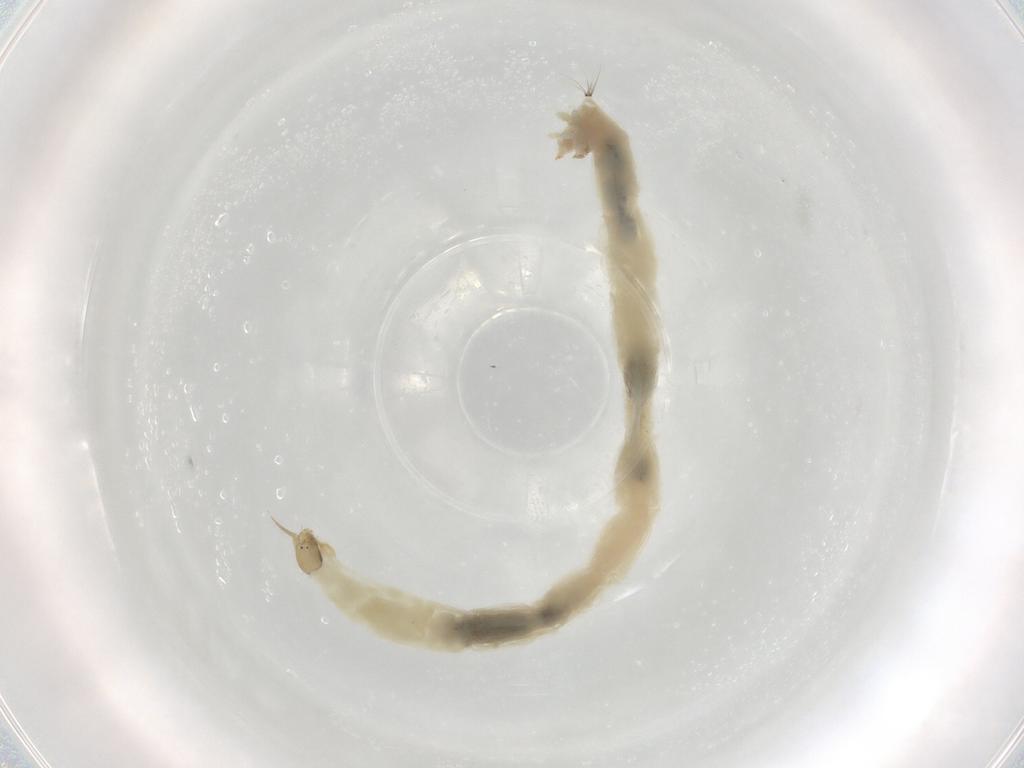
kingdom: Animalia
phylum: Arthropoda
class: Insecta
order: Diptera
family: Chironomidae
